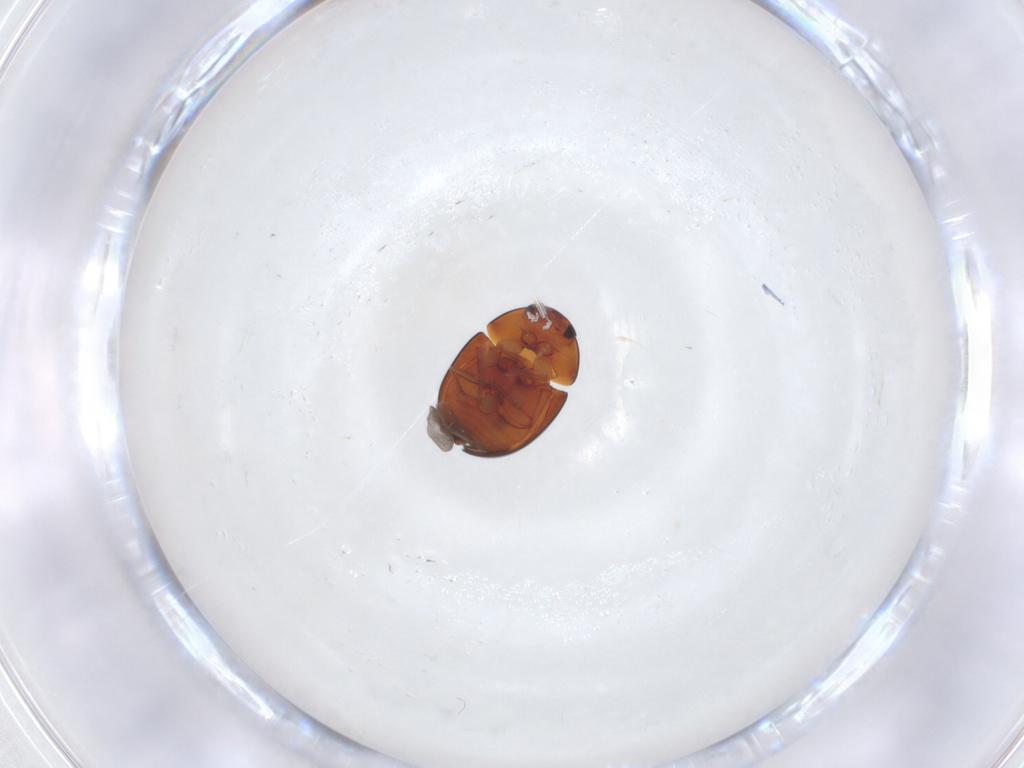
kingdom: Animalia
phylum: Arthropoda
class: Insecta
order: Coleoptera
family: Phalacridae
